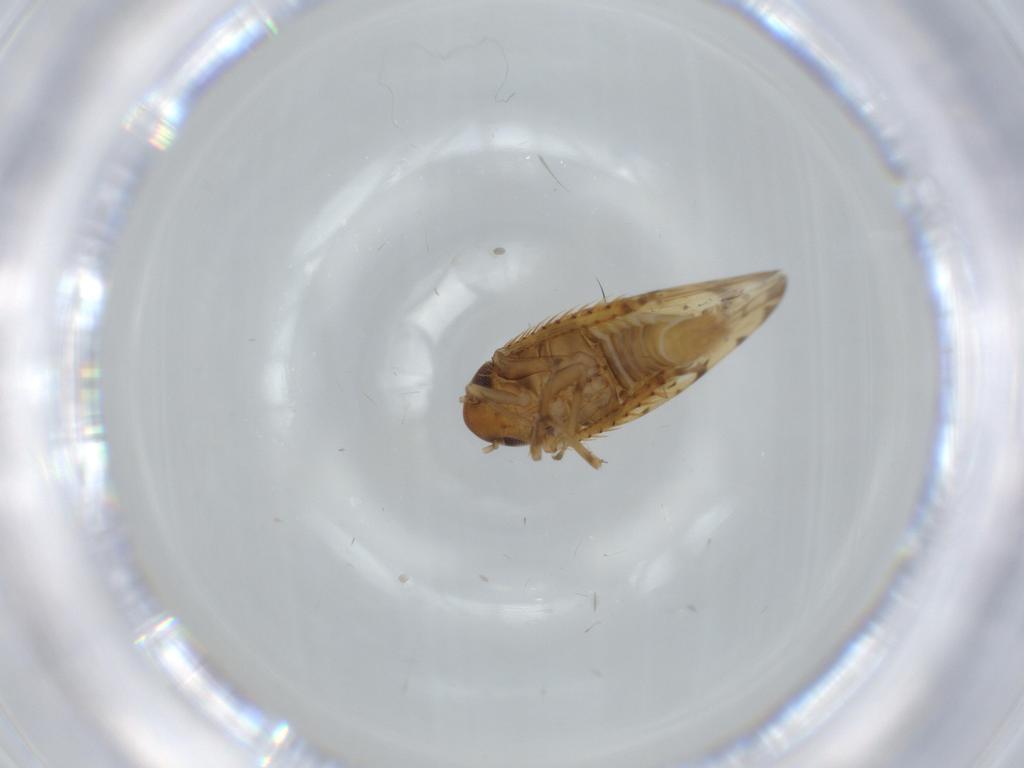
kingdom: Animalia
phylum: Arthropoda
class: Insecta
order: Hemiptera
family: Cicadellidae
